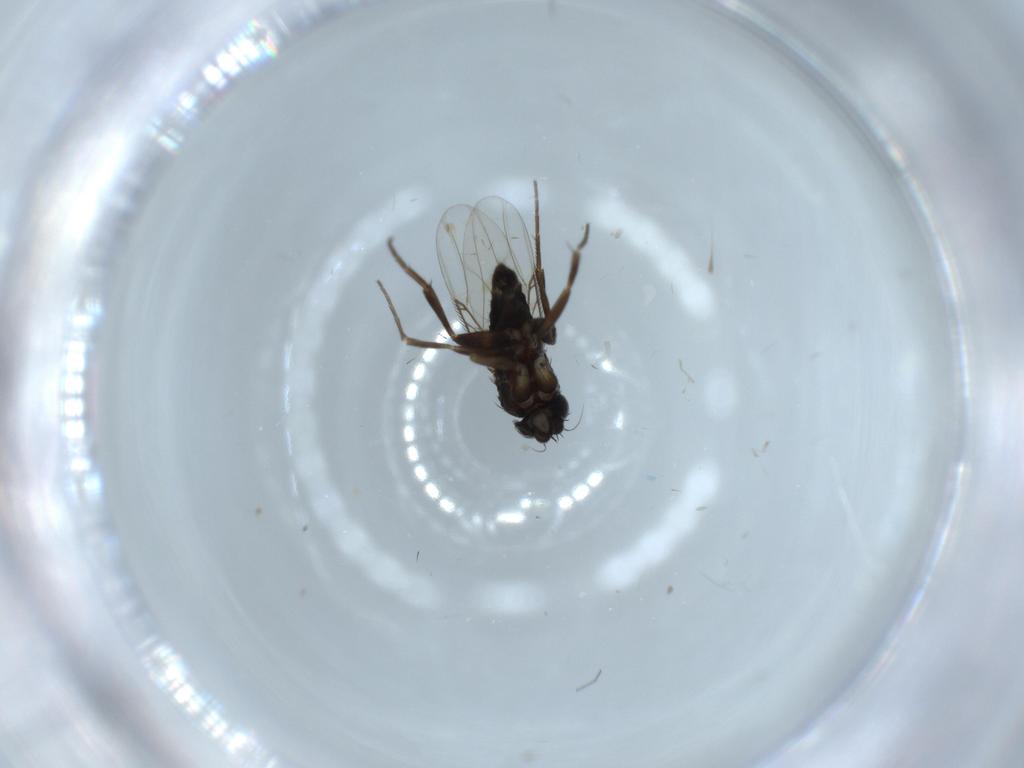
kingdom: Animalia
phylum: Arthropoda
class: Insecta
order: Diptera
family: Phoridae
